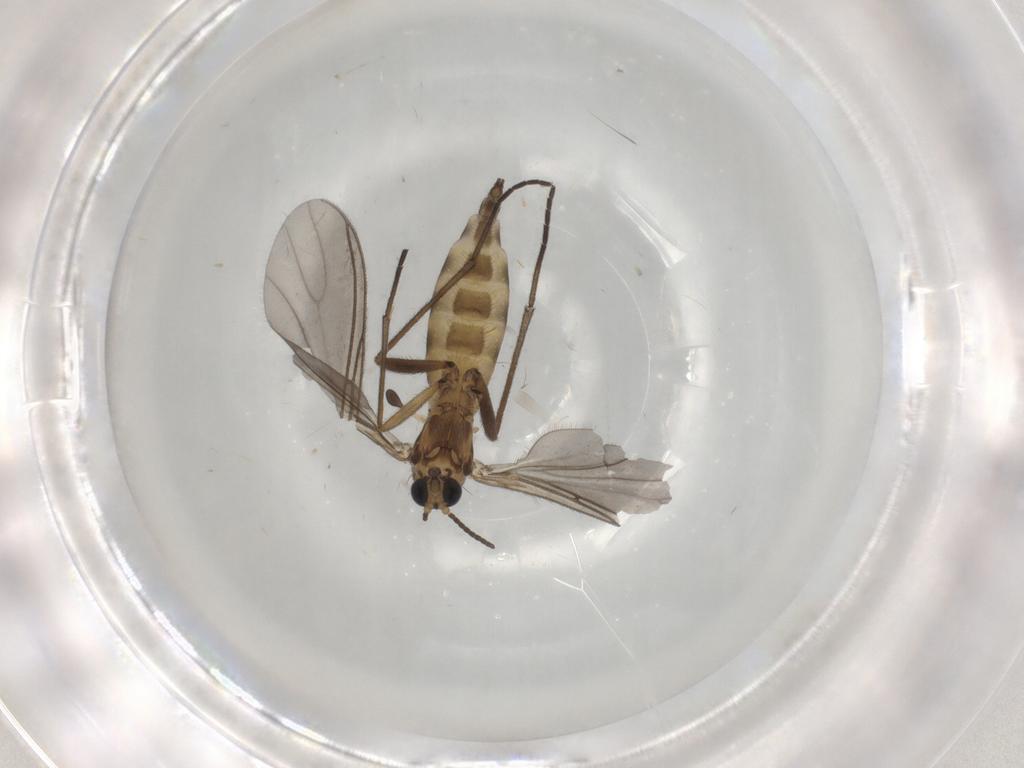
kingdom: Animalia
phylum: Arthropoda
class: Insecta
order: Diptera
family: Sciaridae
